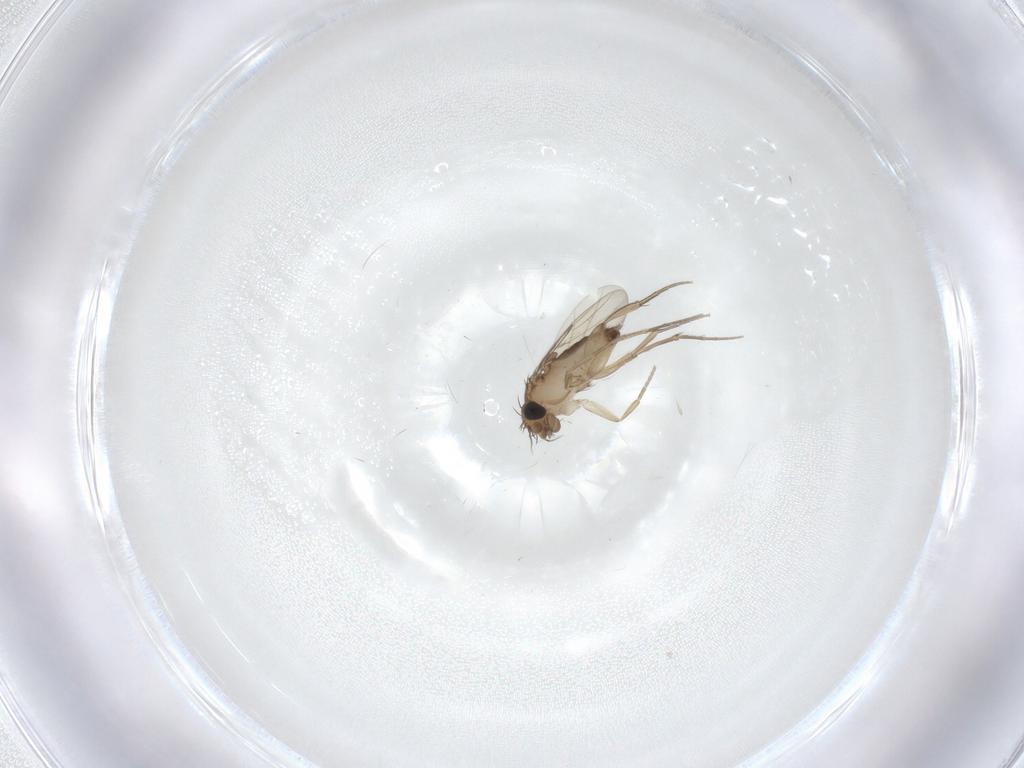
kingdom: Animalia
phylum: Arthropoda
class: Insecta
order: Diptera
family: Phoridae
